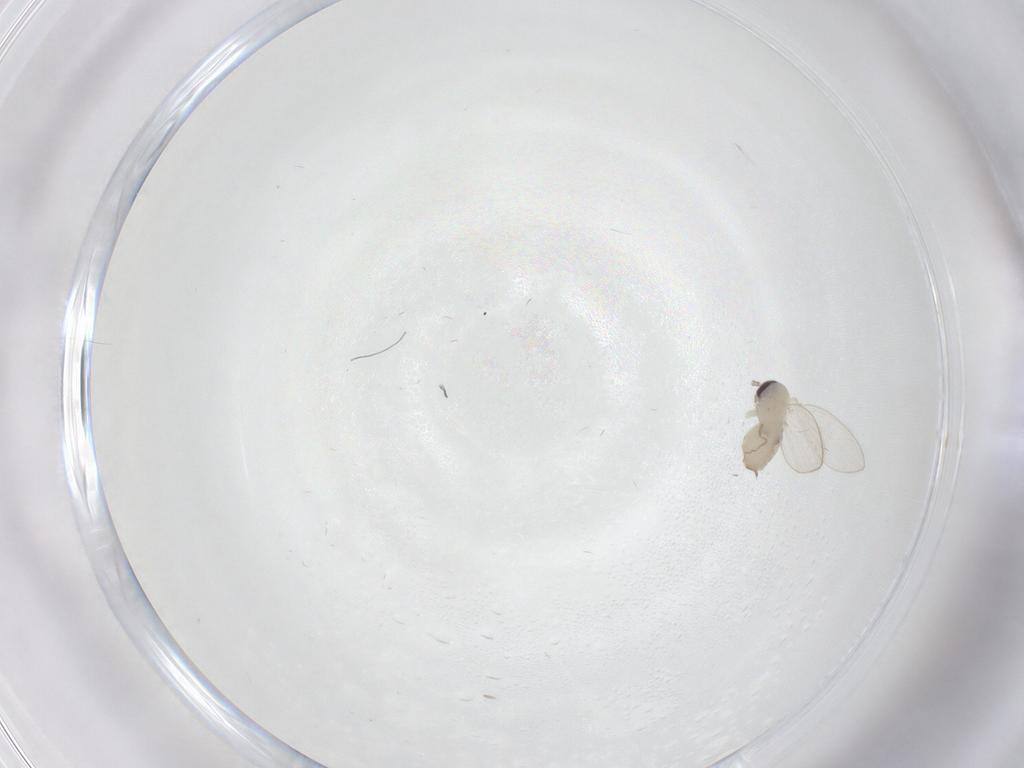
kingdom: Animalia
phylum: Arthropoda
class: Insecta
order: Diptera
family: Psychodidae
